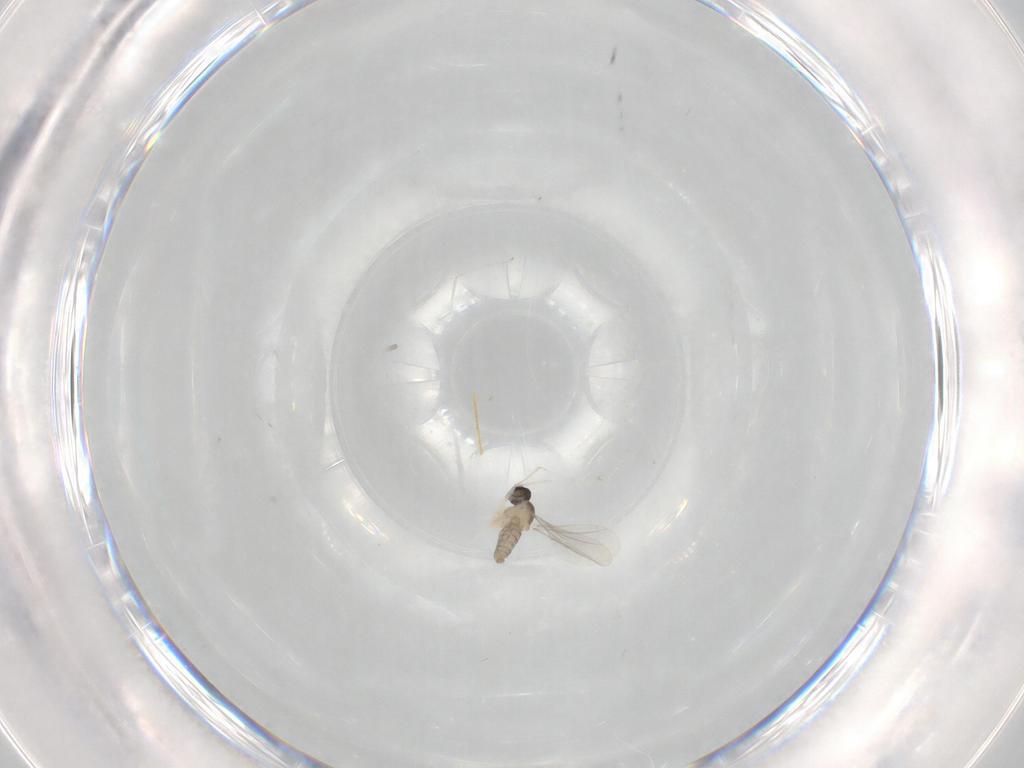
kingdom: Animalia
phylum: Arthropoda
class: Insecta
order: Diptera
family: Cecidomyiidae
